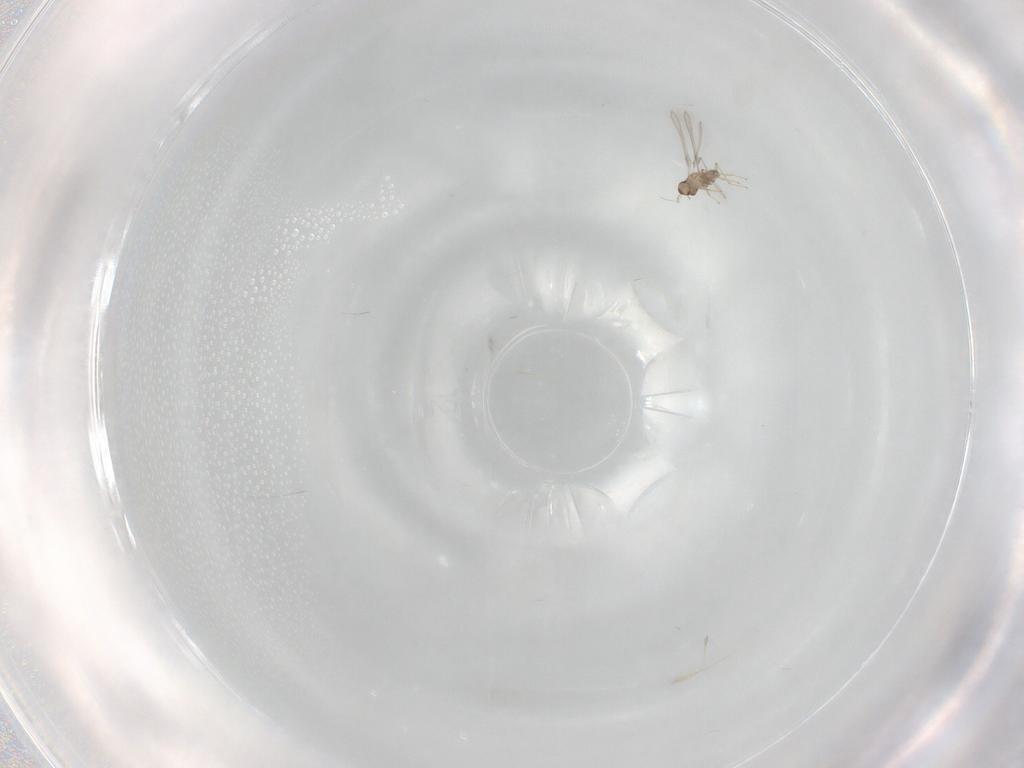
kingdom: Animalia
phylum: Arthropoda
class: Insecta
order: Hymenoptera
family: Mymaridae
